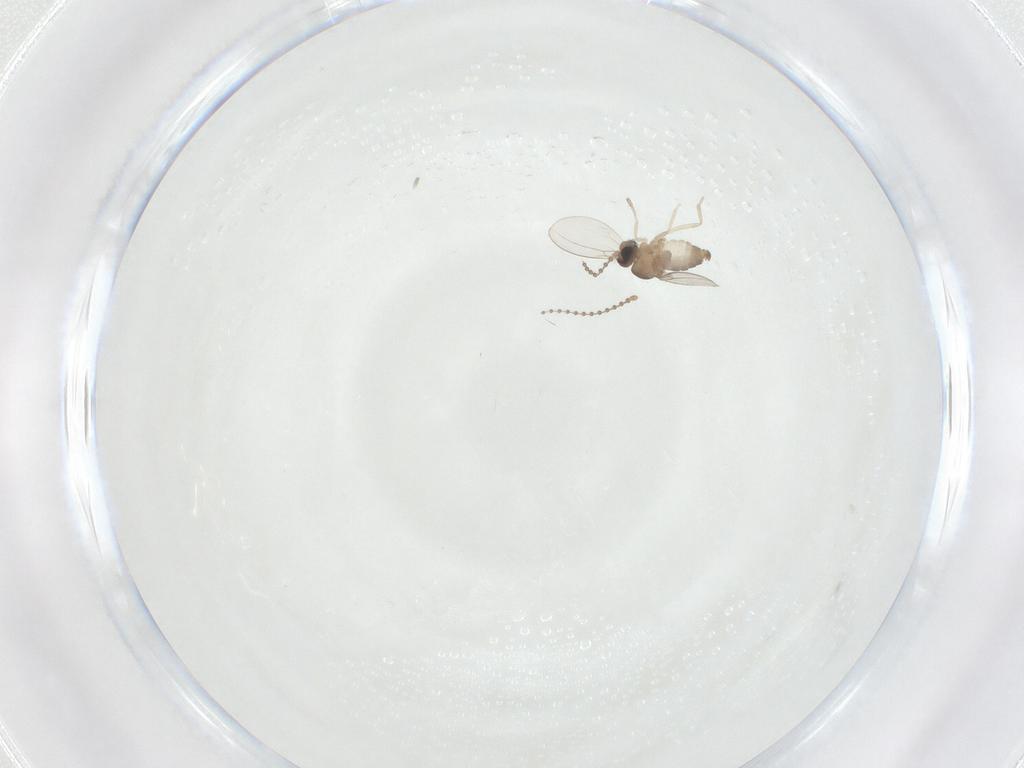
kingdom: Animalia
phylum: Arthropoda
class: Insecta
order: Diptera
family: Cecidomyiidae
